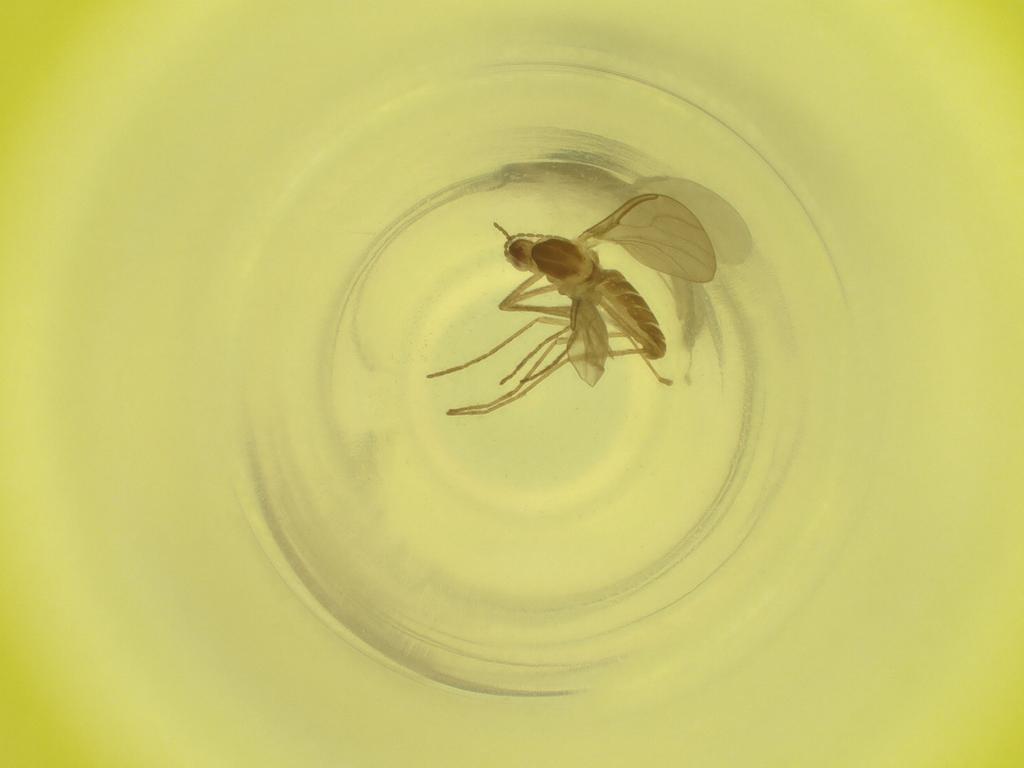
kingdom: Animalia
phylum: Arthropoda
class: Insecta
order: Diptera
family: Cecidomyiidae
